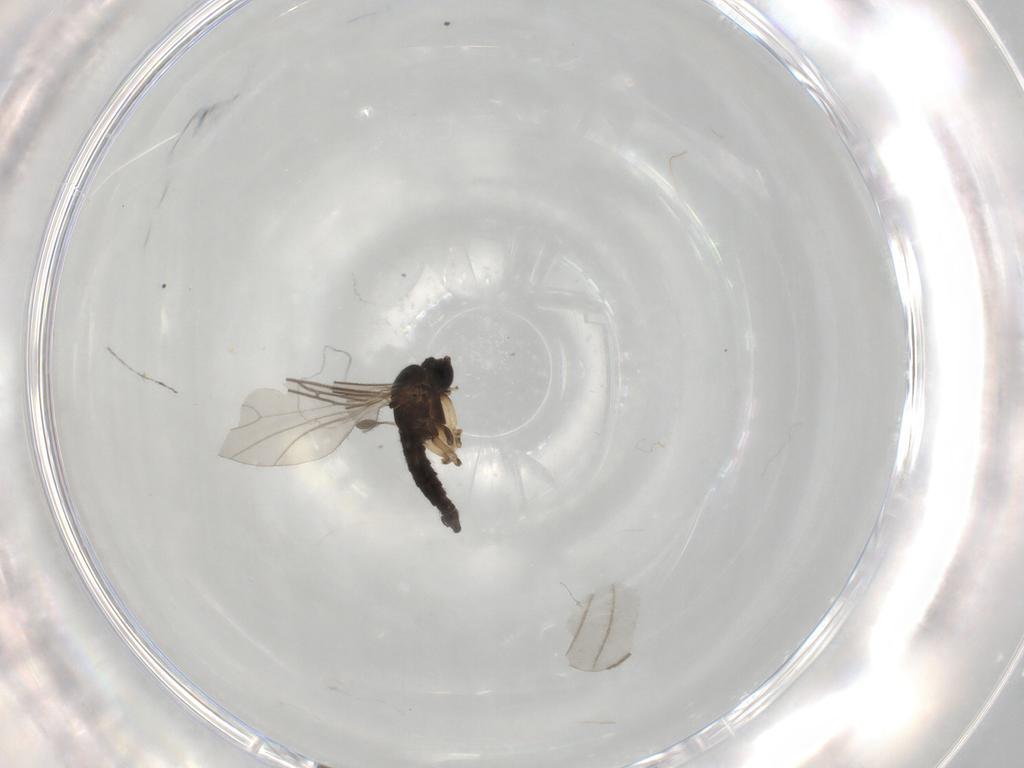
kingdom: Animalia
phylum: Arthropoda
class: Insecta
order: Diptera
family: Sciaridae
